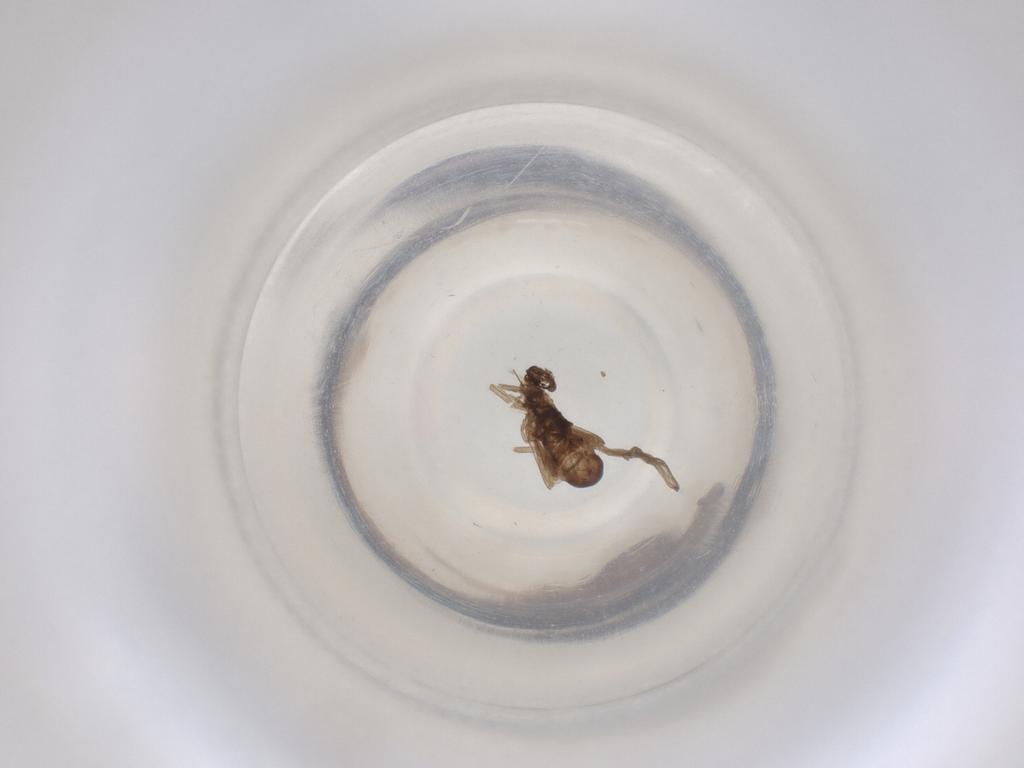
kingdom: Animalia
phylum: Arthropoda
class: Insecta
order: Diptera
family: Cecidomyiidae
